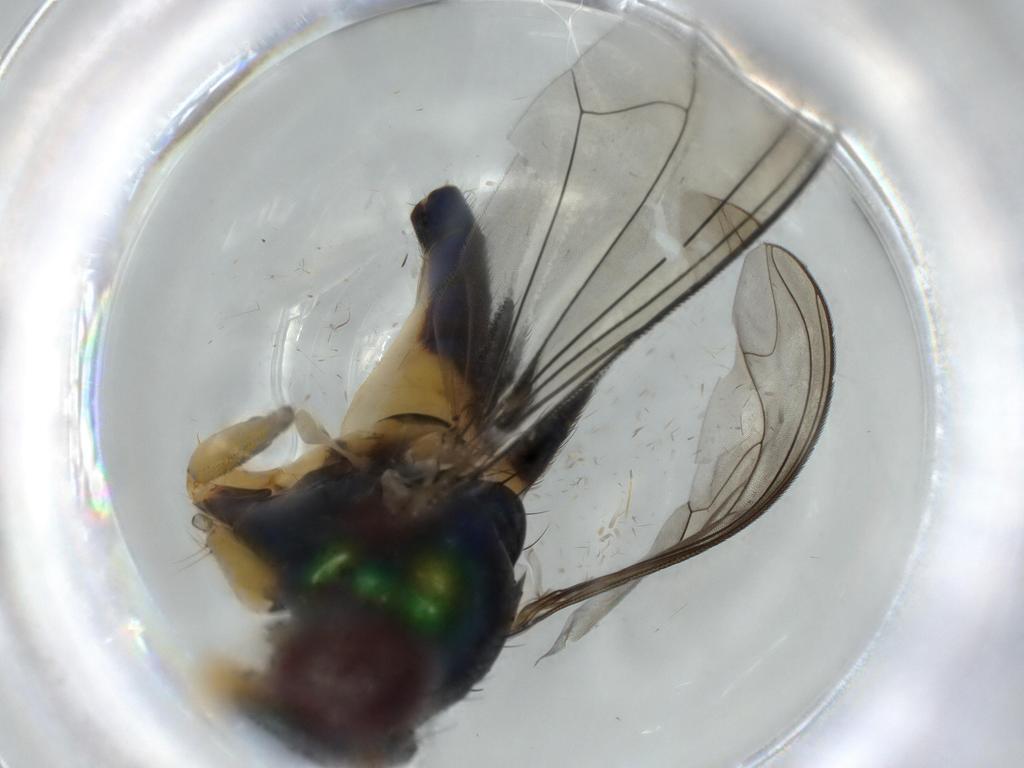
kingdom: Animalia
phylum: Arthropoda
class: Insecta
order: Diptera
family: Dolichopodidae
